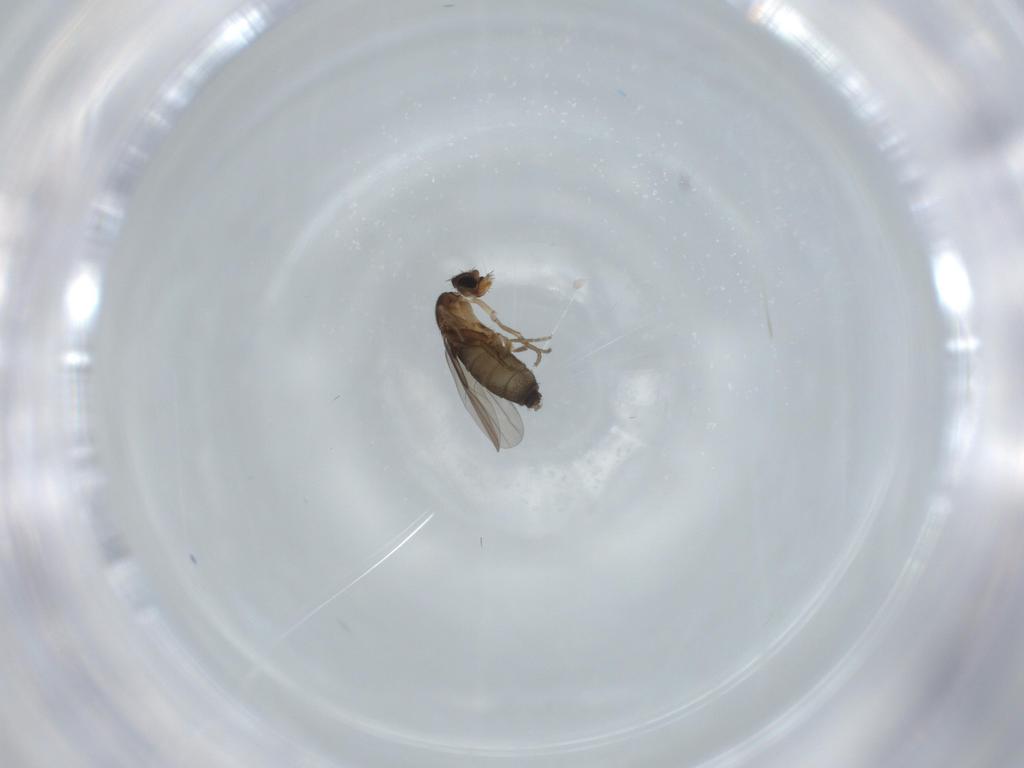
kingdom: Animalia
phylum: Arthropoda
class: Insecta
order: Diptera
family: Phoridae
